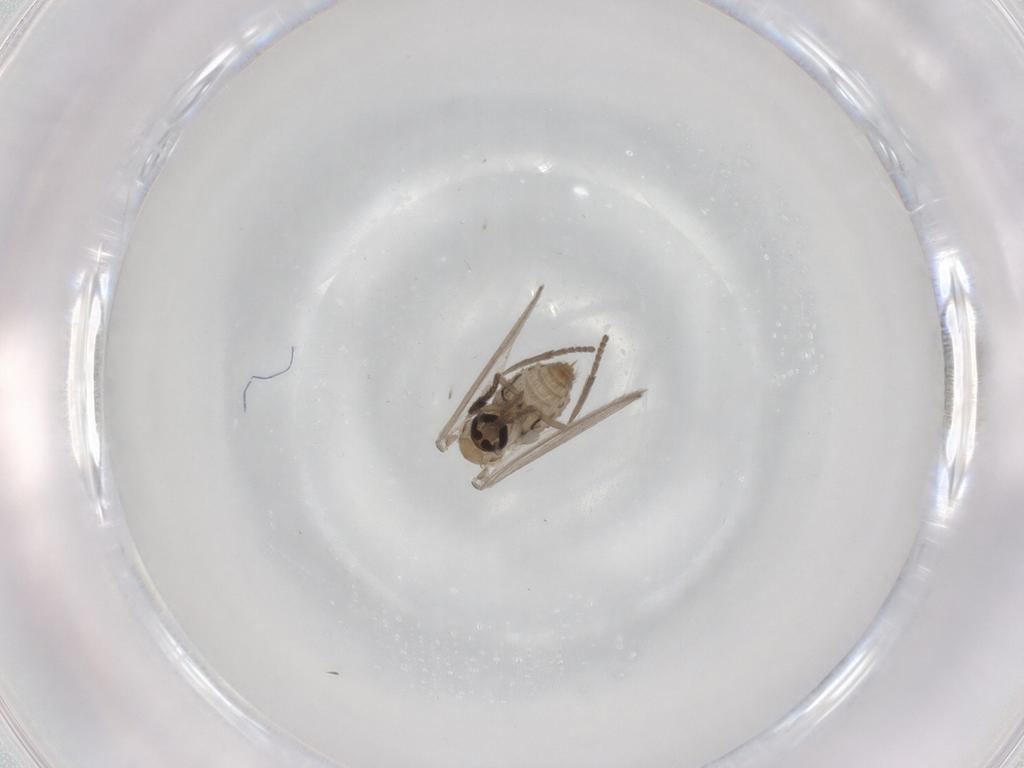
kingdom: Animalia
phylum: Arthropoda
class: Insecta
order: Diptera
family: Psychodidae
